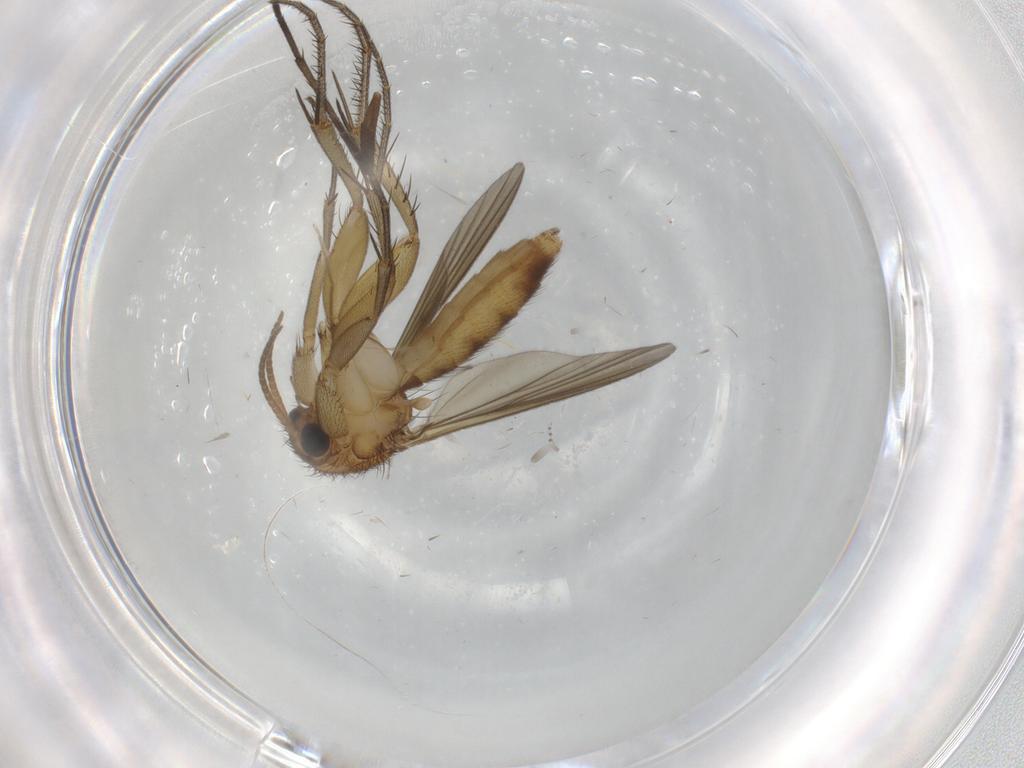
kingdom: Animalia
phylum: Arthropoda
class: Insecta
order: Diptera
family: Mycetophilidae
